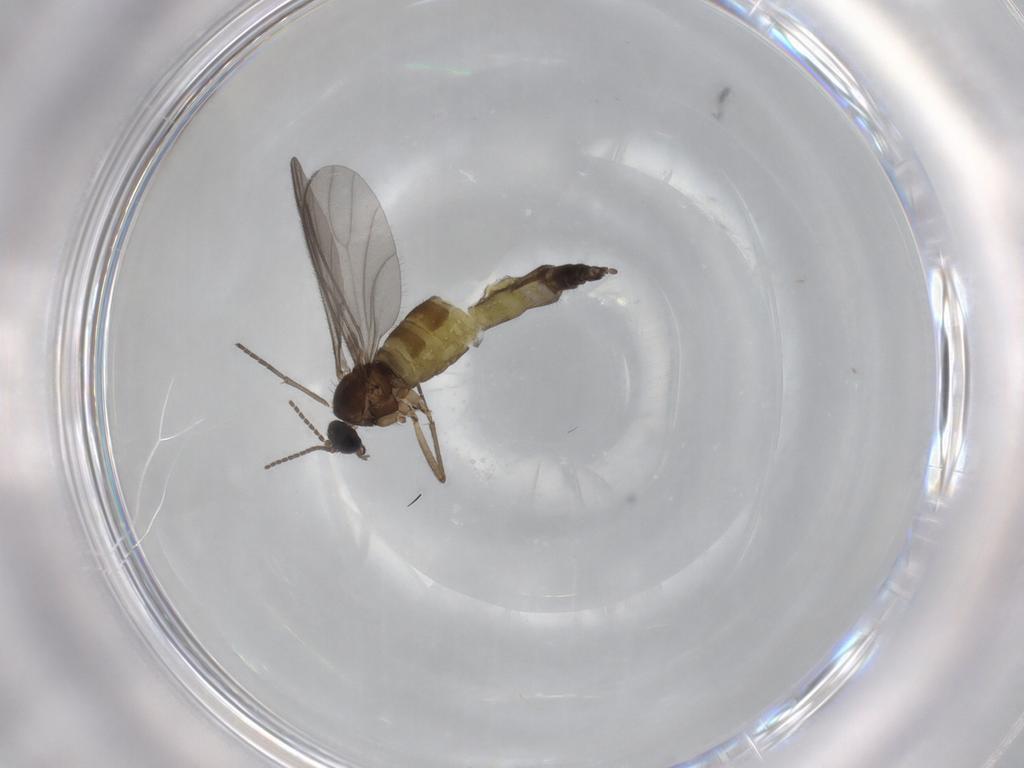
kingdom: Animalia
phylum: Arthropoda
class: Insecta
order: Diptera
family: Sciaridae
